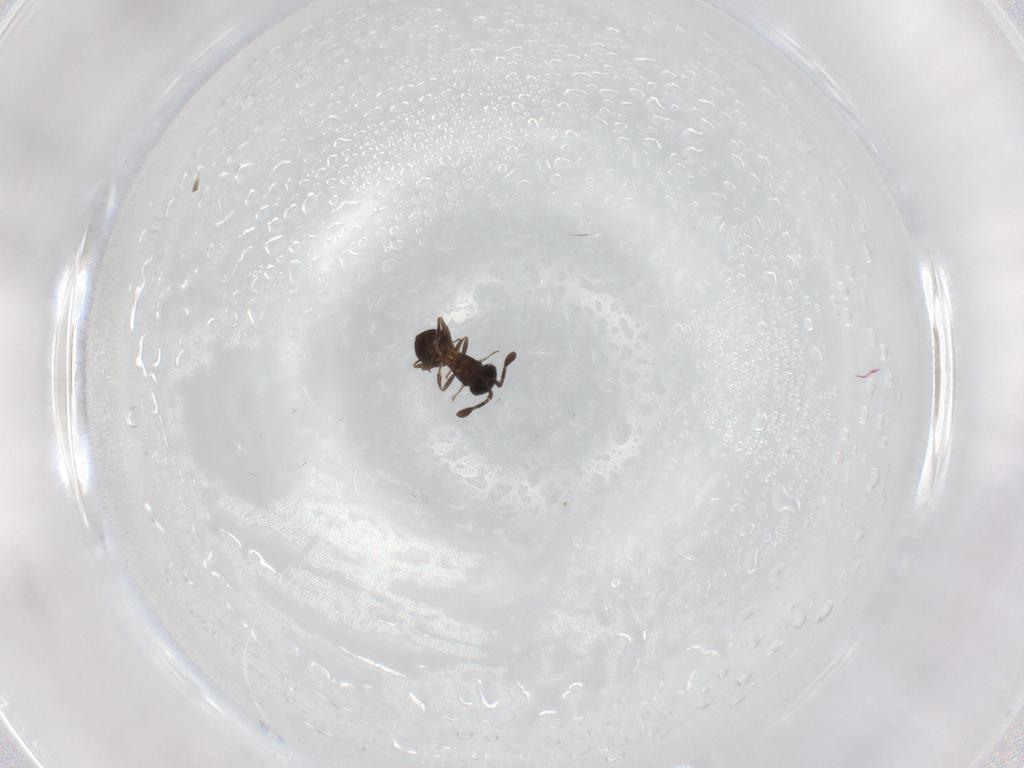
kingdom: Animalia
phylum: Arthropoda
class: Insecta
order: Hymenoptera
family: Scelionidae
